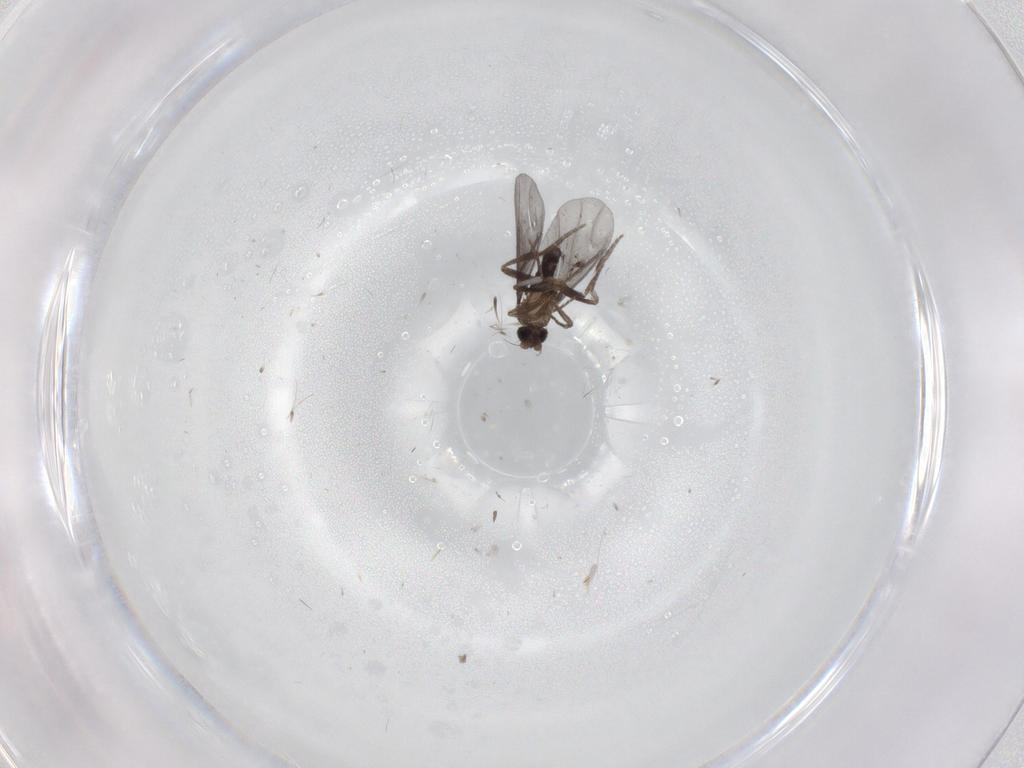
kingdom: Animalia
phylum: Arthropoda
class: Insecta
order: Diptera
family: Phoridae
